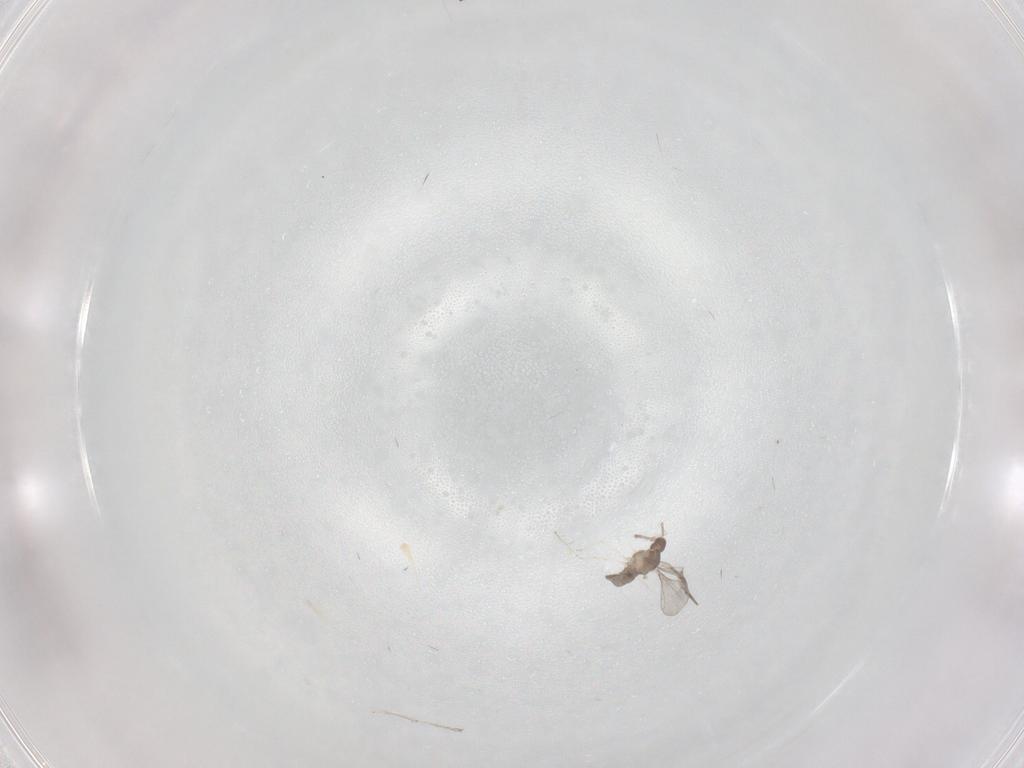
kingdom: Animalia
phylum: Arthropoda
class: Insecta
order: Diptera
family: Cecidomyiidae
